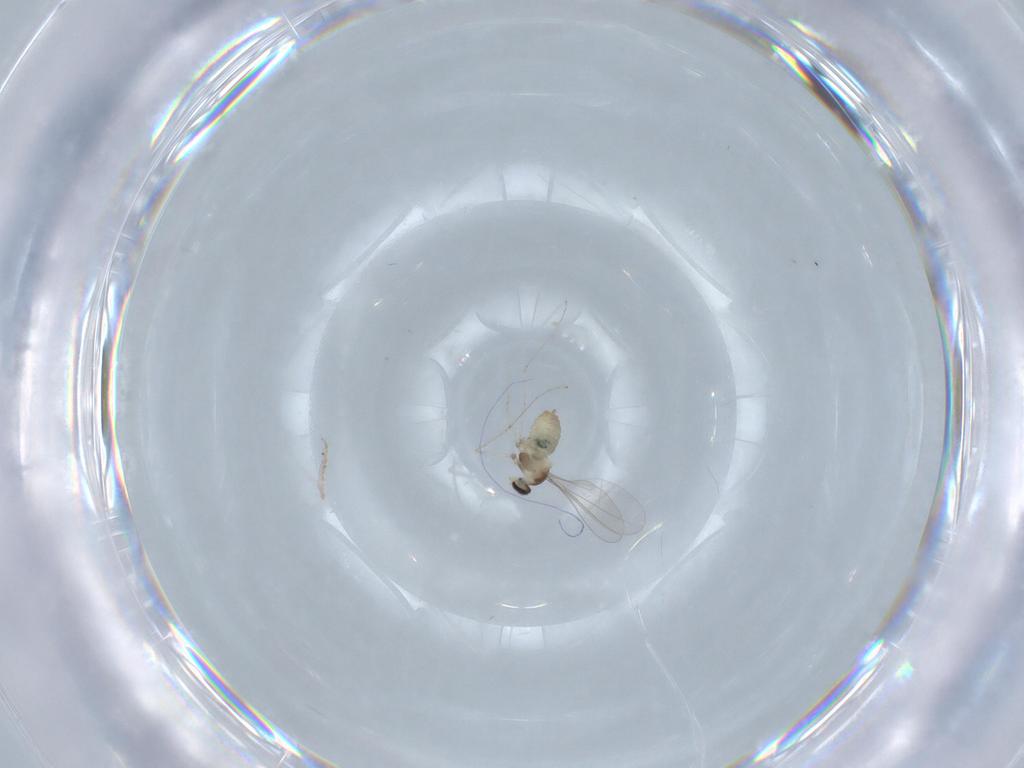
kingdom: Animalia
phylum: Arthropoda
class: Insecta
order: Diptera
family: Cecidomyiidae
